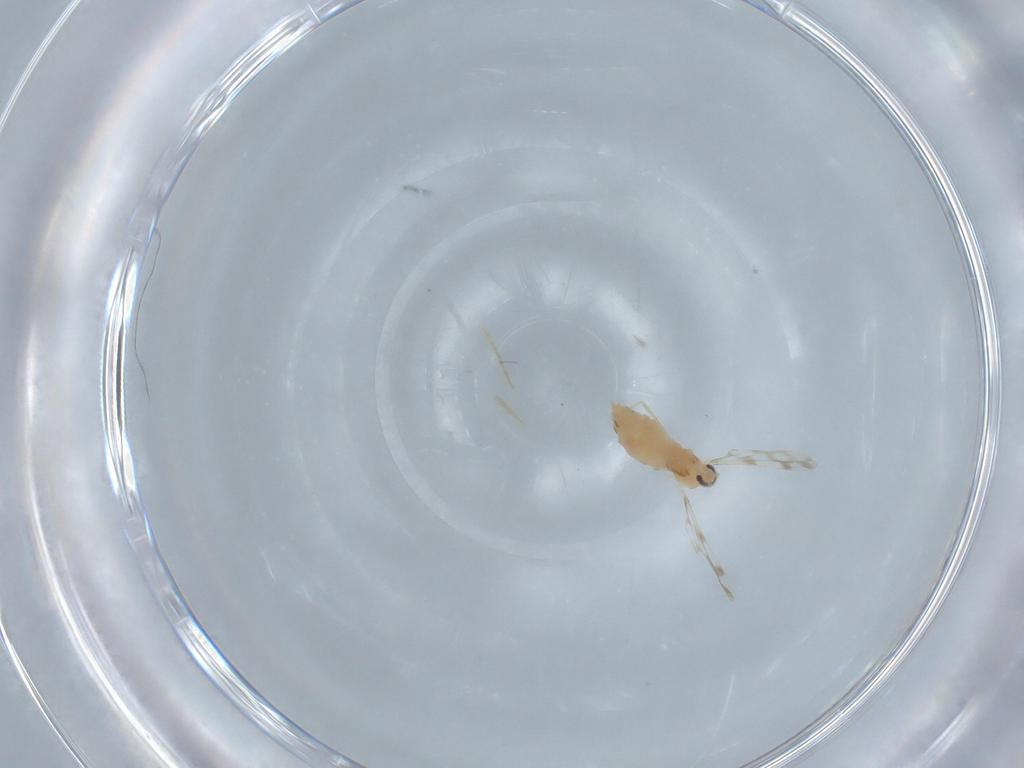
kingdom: Animalia
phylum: Arthropoda
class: Insecta
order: Diptera
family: Cecidomyiidae
